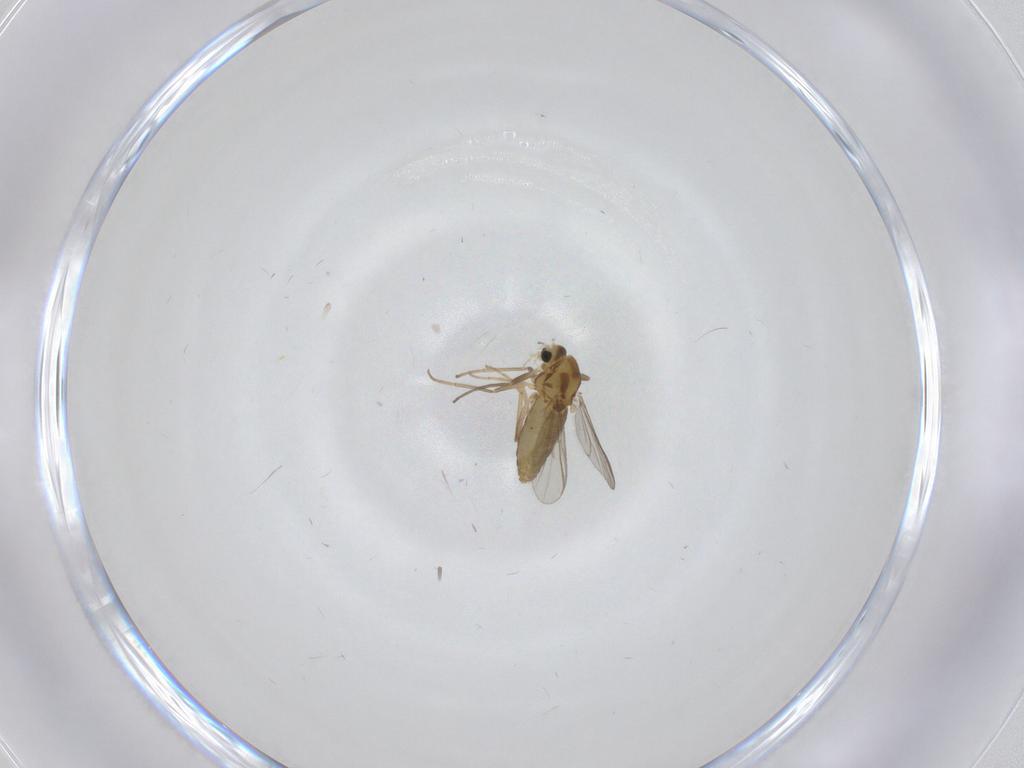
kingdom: Animalia
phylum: Arthropoda
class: Insecta
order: Diptera
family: Chironomidae
